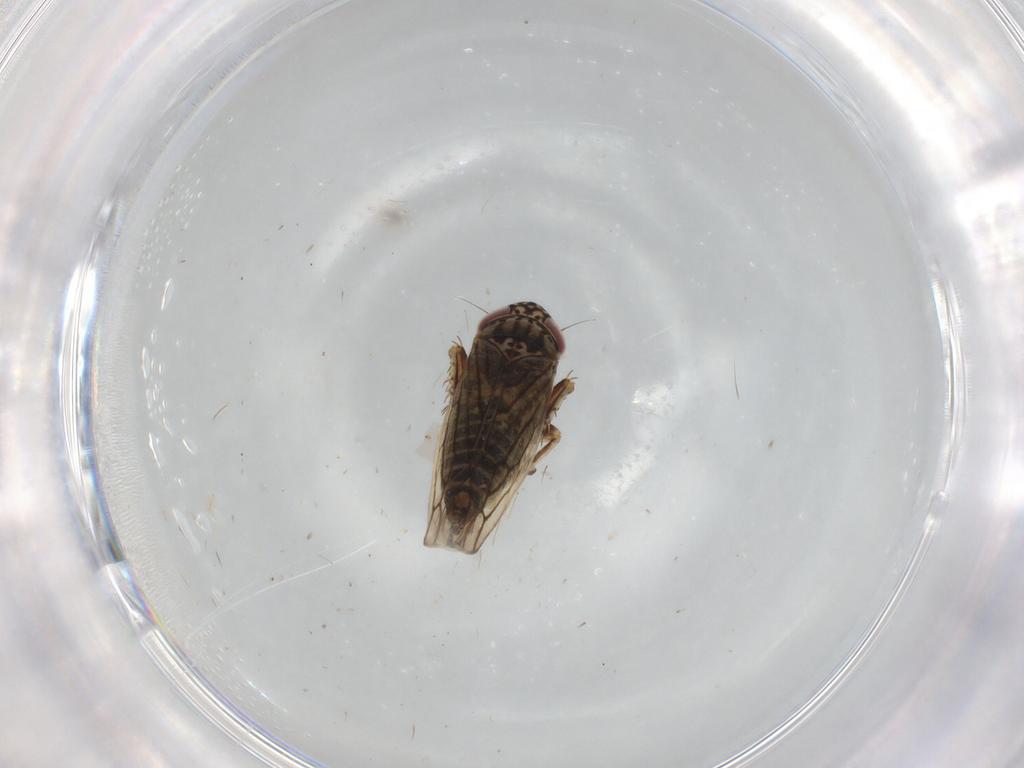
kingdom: Animalia
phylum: Arthropoda
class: Insecta
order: Hemiptera
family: Cicadellidae
